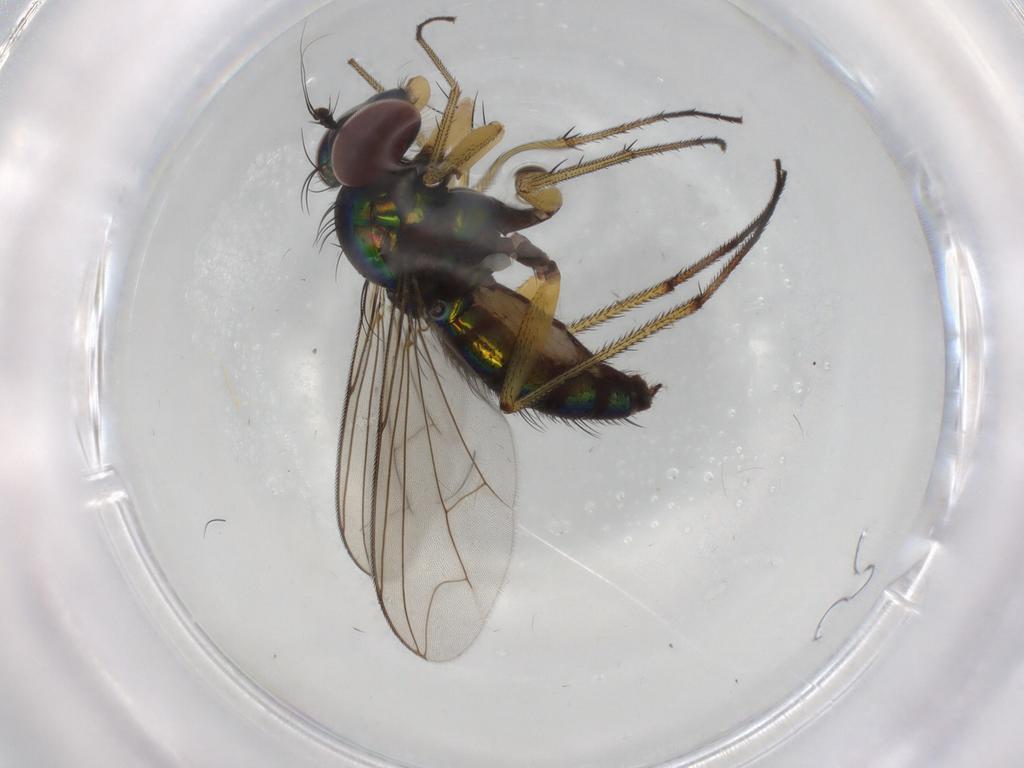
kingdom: Animalia
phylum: Arthropoda
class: Insecta
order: Diptera
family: Dolichopodidae
